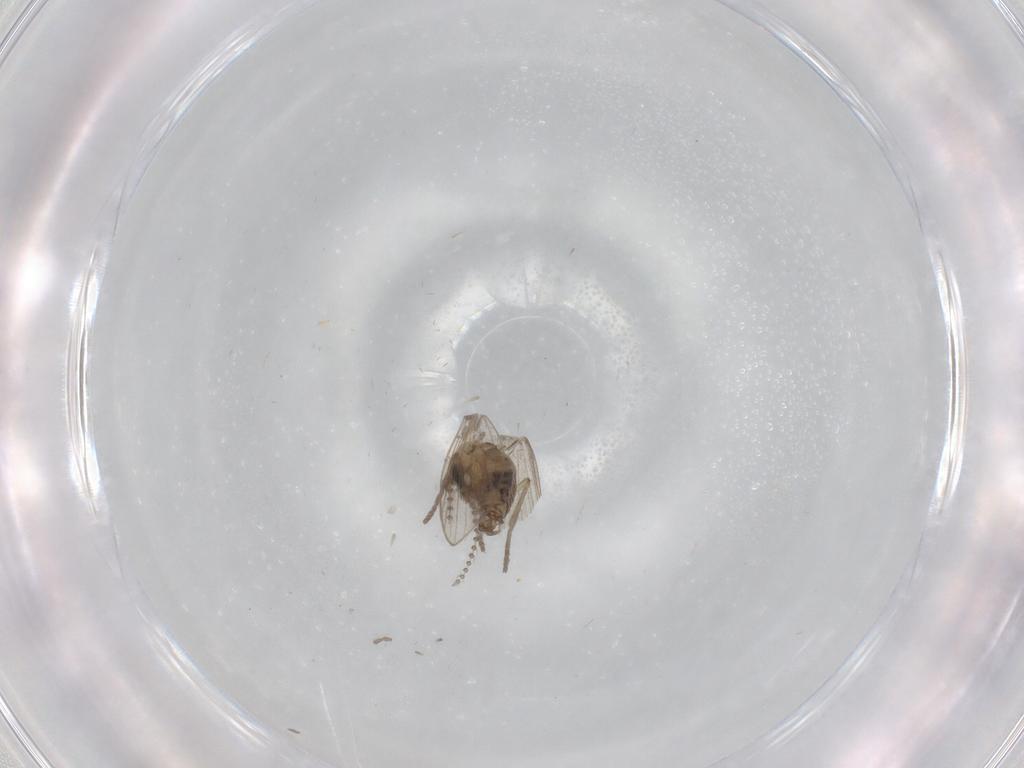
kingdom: Animalia
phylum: Arthropoda
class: Insecta
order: Diptera
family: Psychodidae
